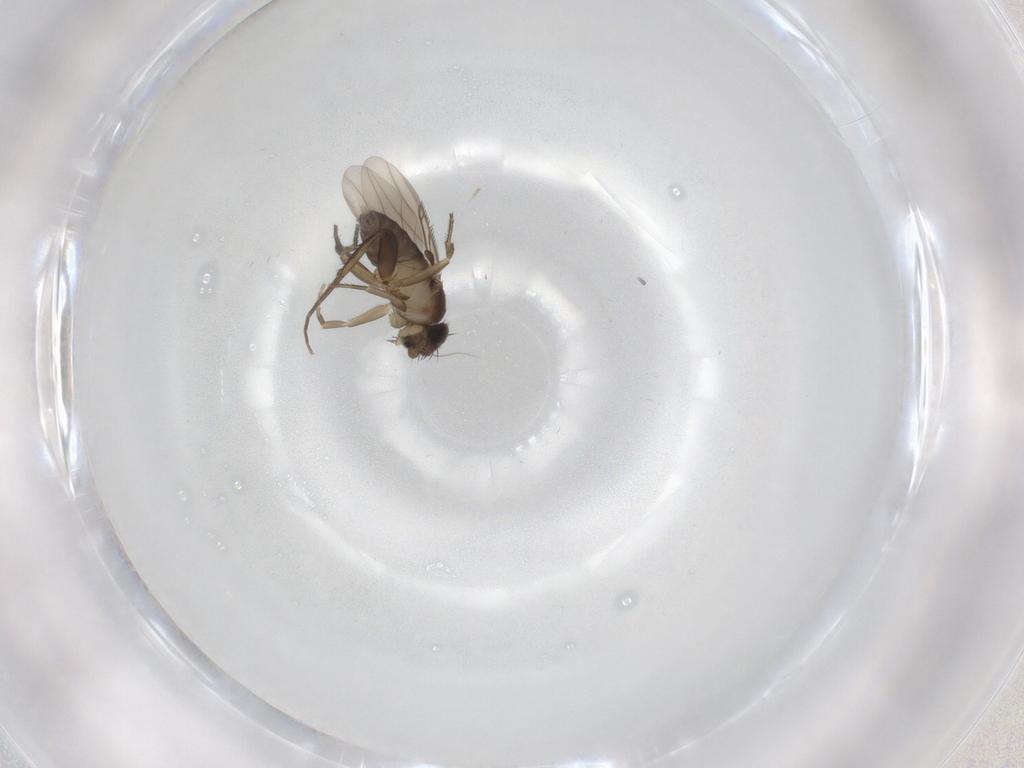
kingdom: Animalia
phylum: Arthropoda
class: Insecta
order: Diptera
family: Phoridae
